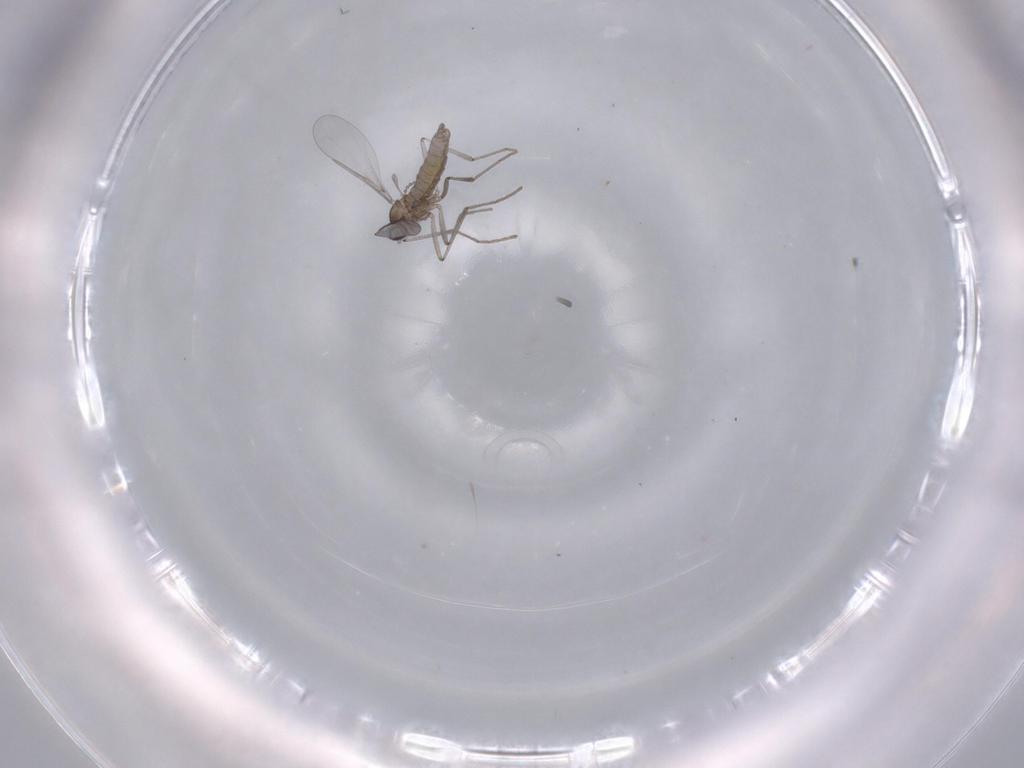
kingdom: Animalia
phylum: Arthropoda
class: Insecta
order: Diptera
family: Cecidomyiidae
